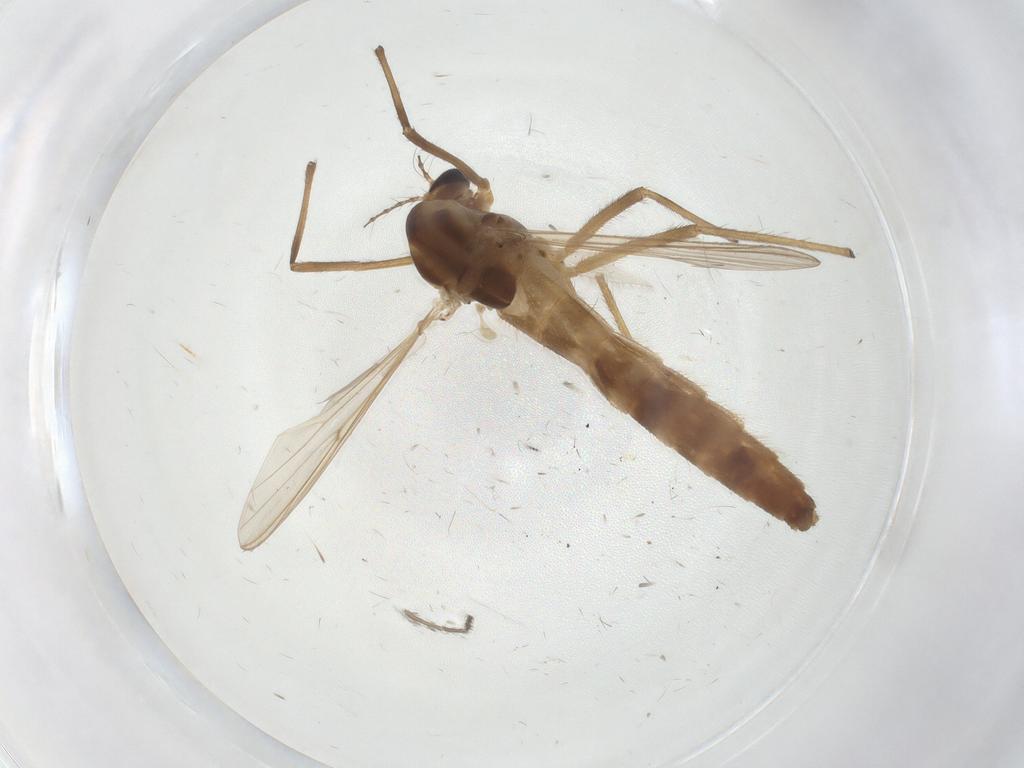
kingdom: Animalia
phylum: Arthropoda
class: Insecta
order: Diptera
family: Chironomidae
